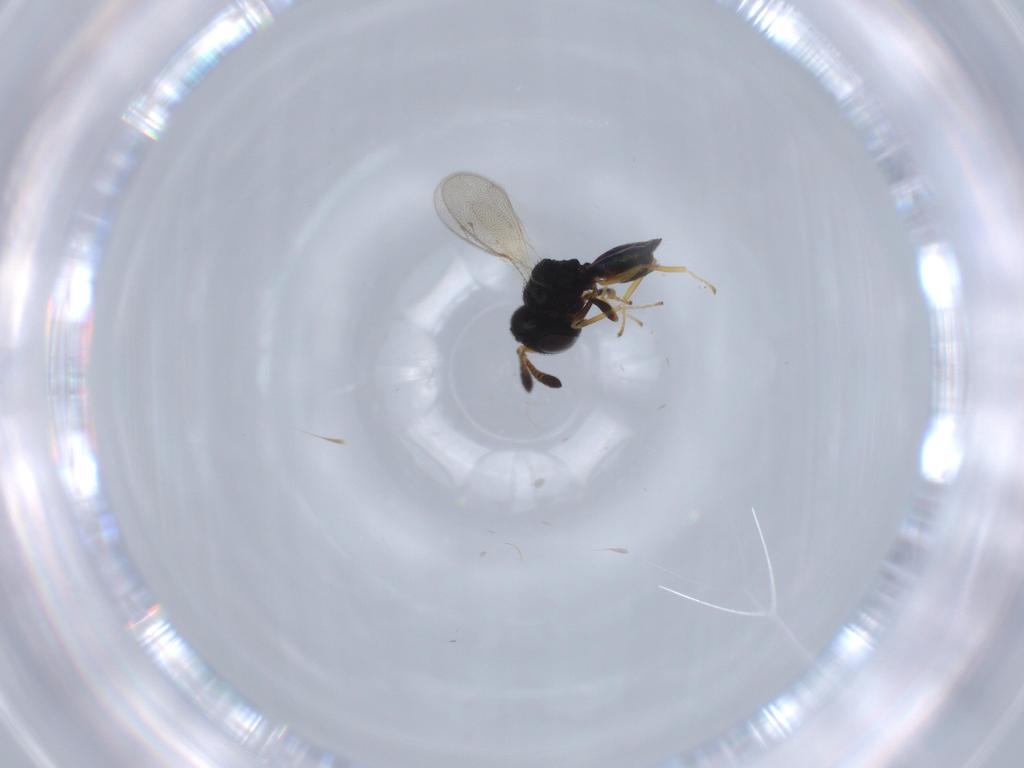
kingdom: Animalia
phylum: Arthropoda
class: Insecta
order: Hymenoptera
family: Pteromalidae
